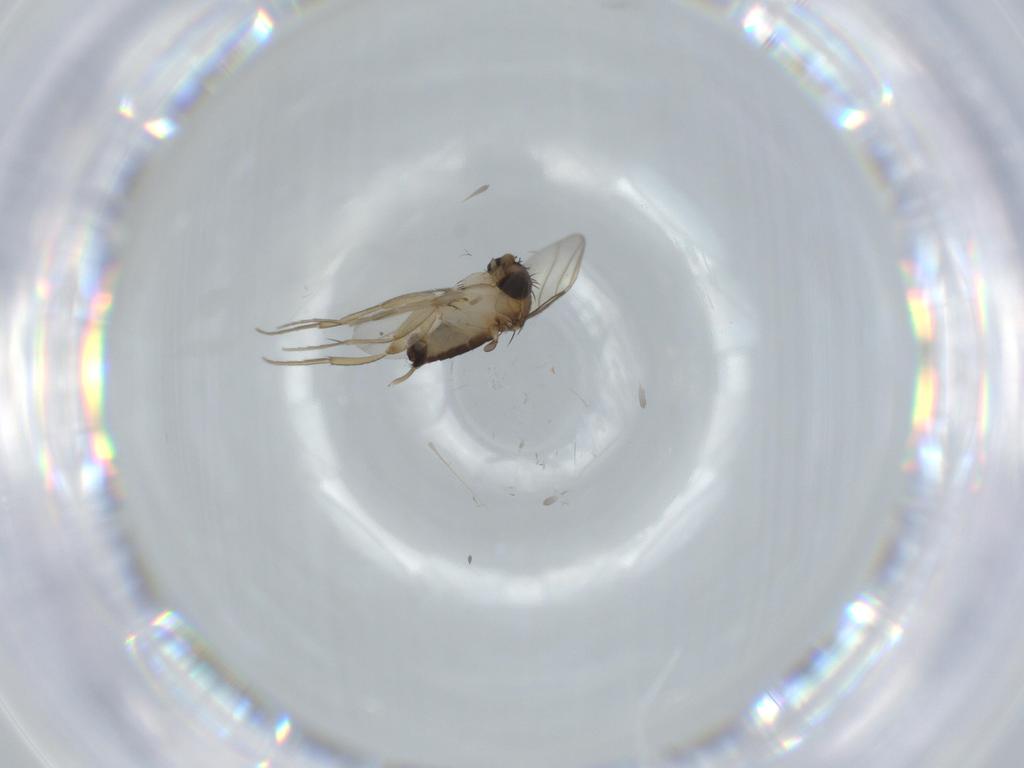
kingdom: Animalia
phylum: Arthropoda
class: Insecta
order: Diptera
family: Phoridae
